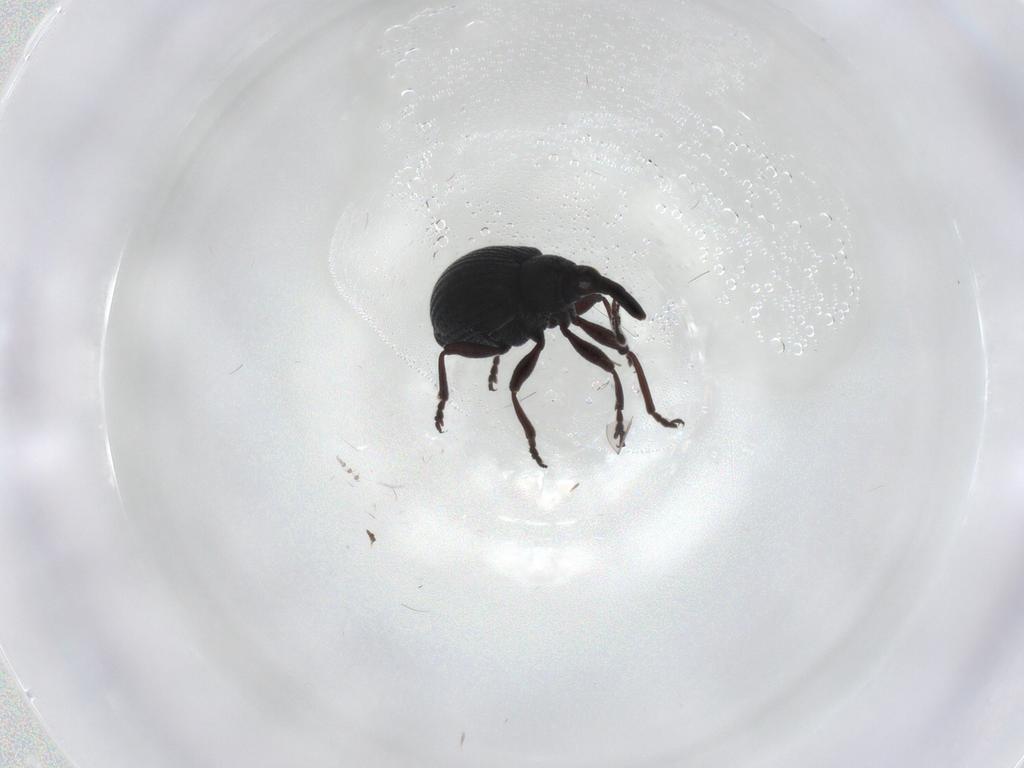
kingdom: Animalia
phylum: Arthropoda
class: Insecta
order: Coleoptera
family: Brentidae
